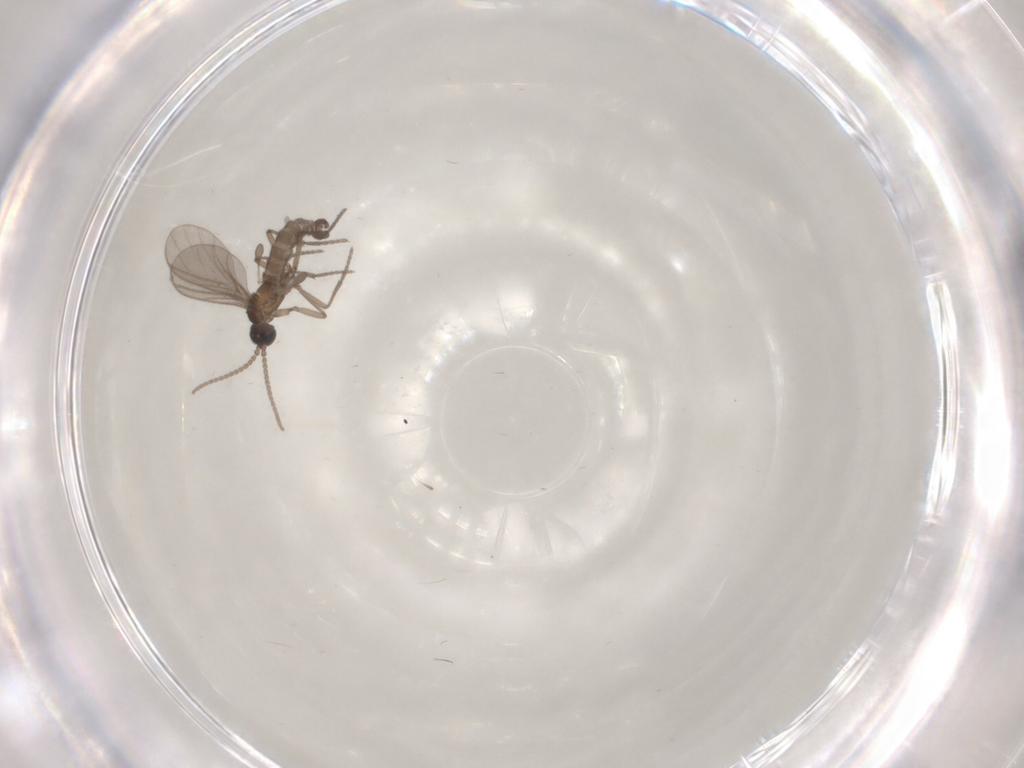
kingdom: Animalia
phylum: Arthropoda
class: Insecta
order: Diptera
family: Sciaridae
